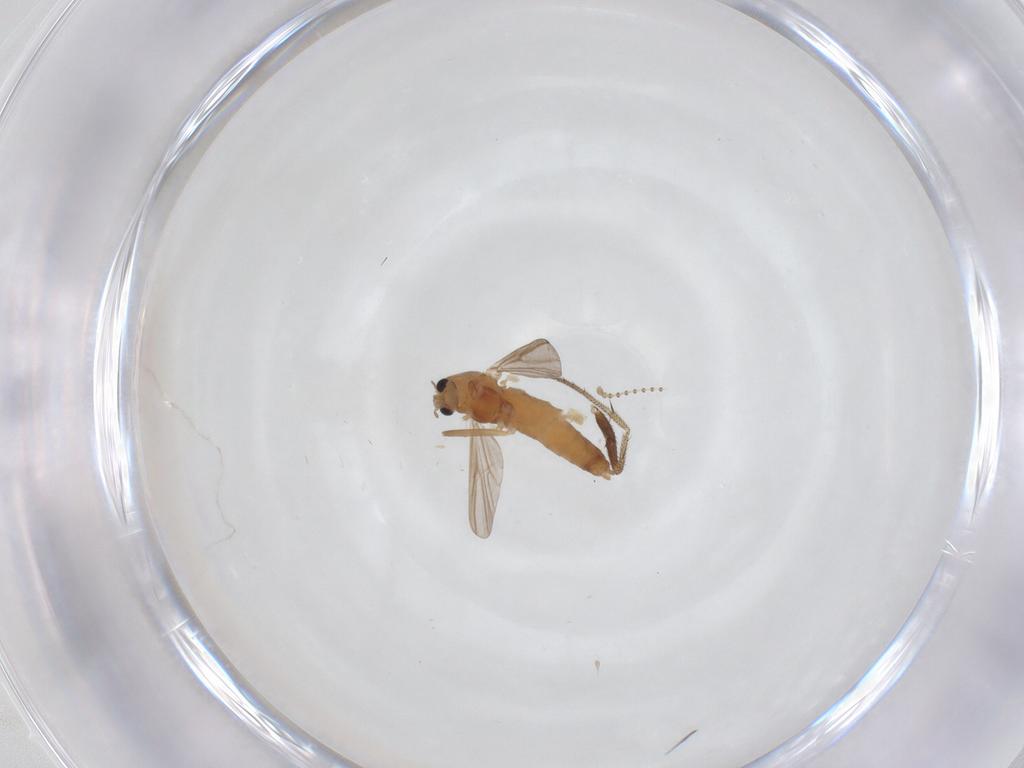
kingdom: Animalia
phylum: Arthropoda
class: Insecta
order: Diptera
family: Chironomidae
